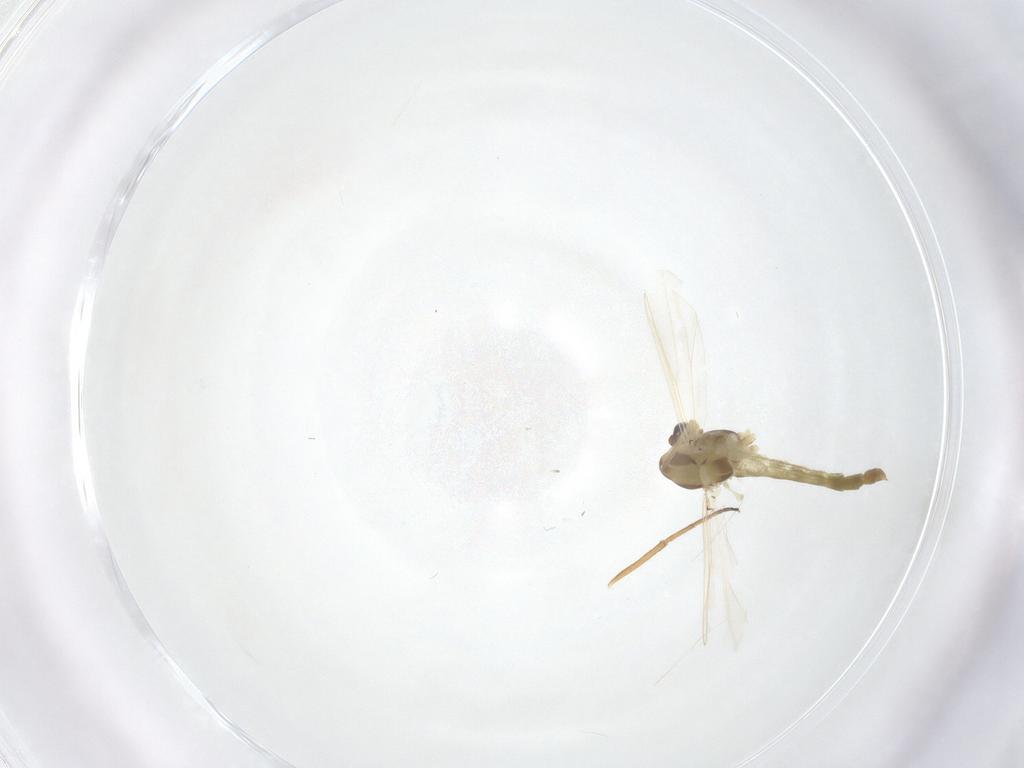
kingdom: Animalia
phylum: Arthropoda
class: Insecta
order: Diptera
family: Chironomidae
